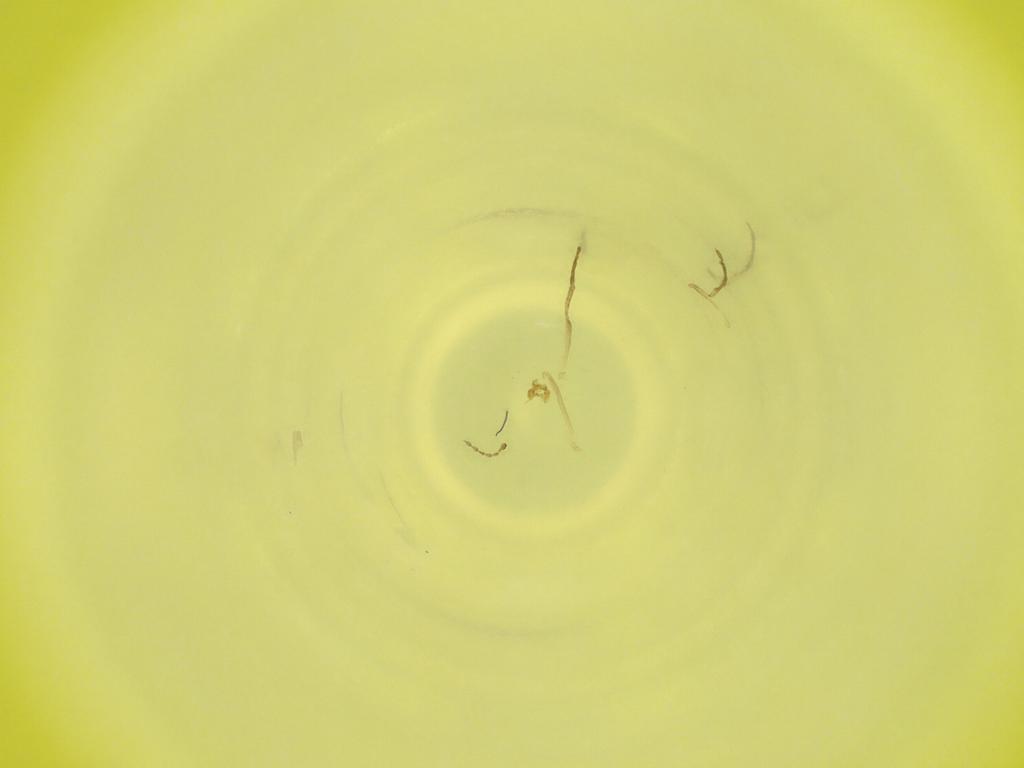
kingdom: Animalia
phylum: Arthropoda
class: Insecta
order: Diptera
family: Cecidomyiidae
